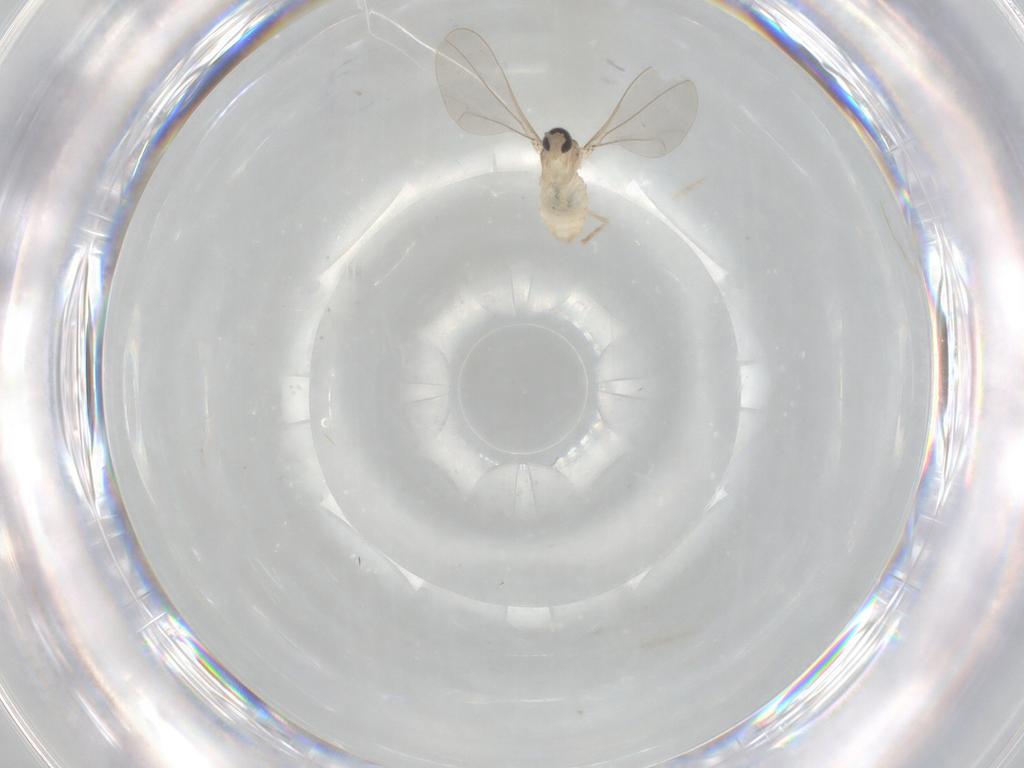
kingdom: Animalia
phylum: Arthropoda
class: Insecta
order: Diptera
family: Cecidomyiidae
